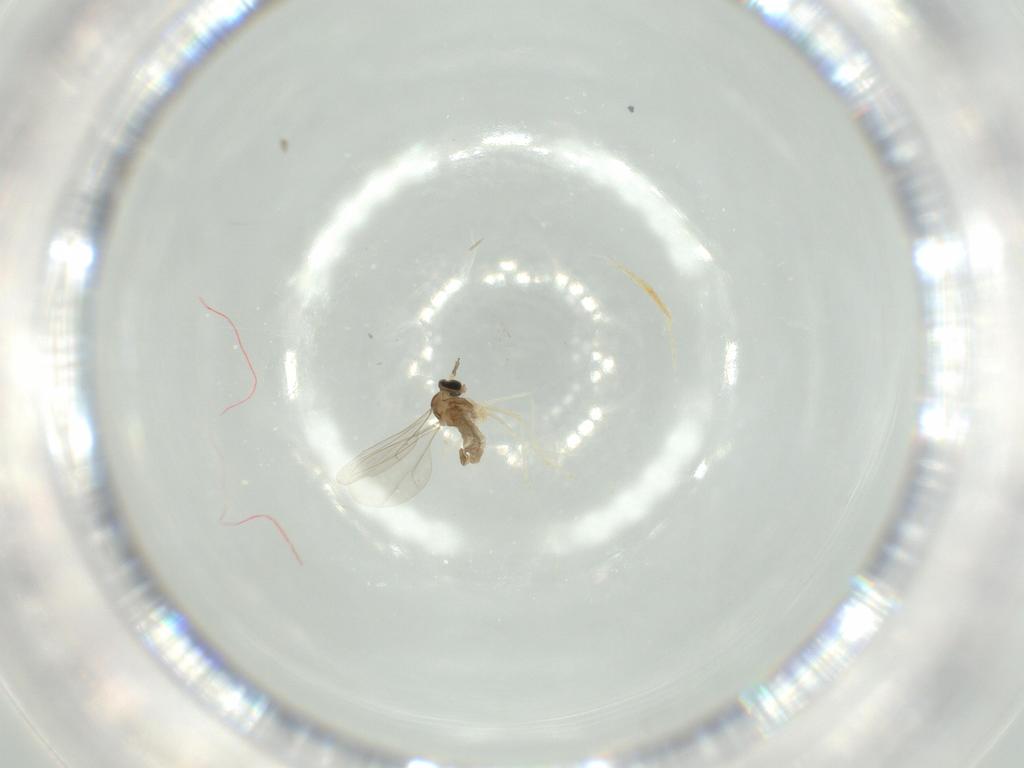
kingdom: Animalia
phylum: Arthropoda
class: Insecta
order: Diptera
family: Cecidomyiidae
